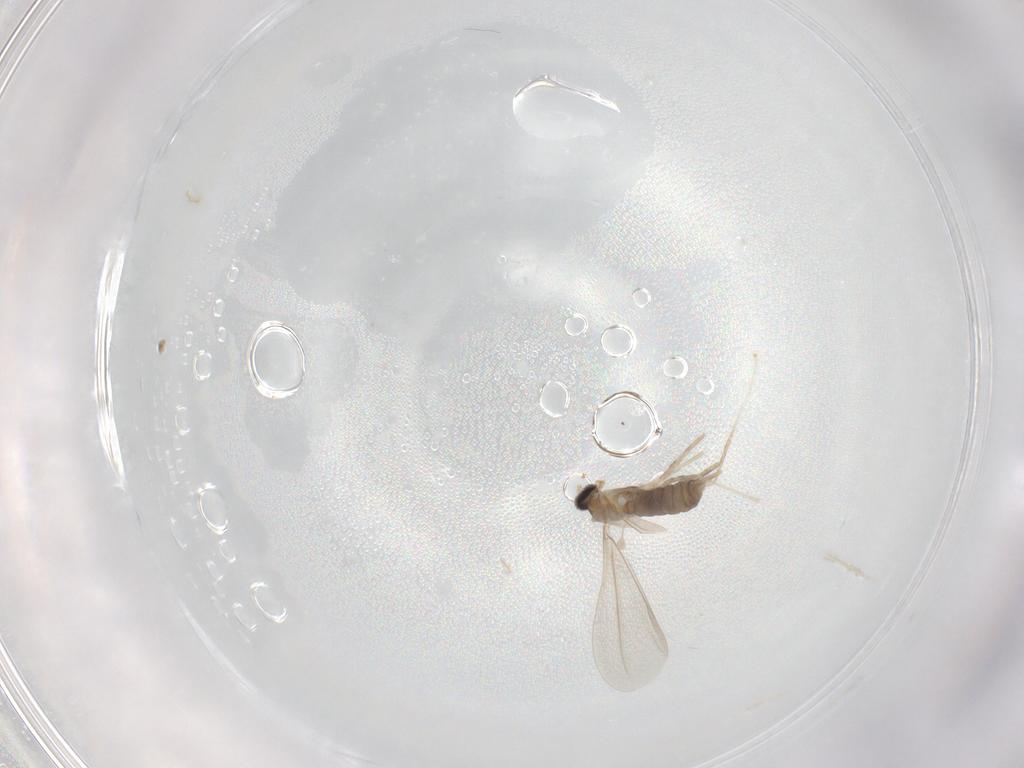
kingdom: Animalia
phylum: Arthropoda
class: Insecta
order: Diptera
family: Cecidomyiidae
